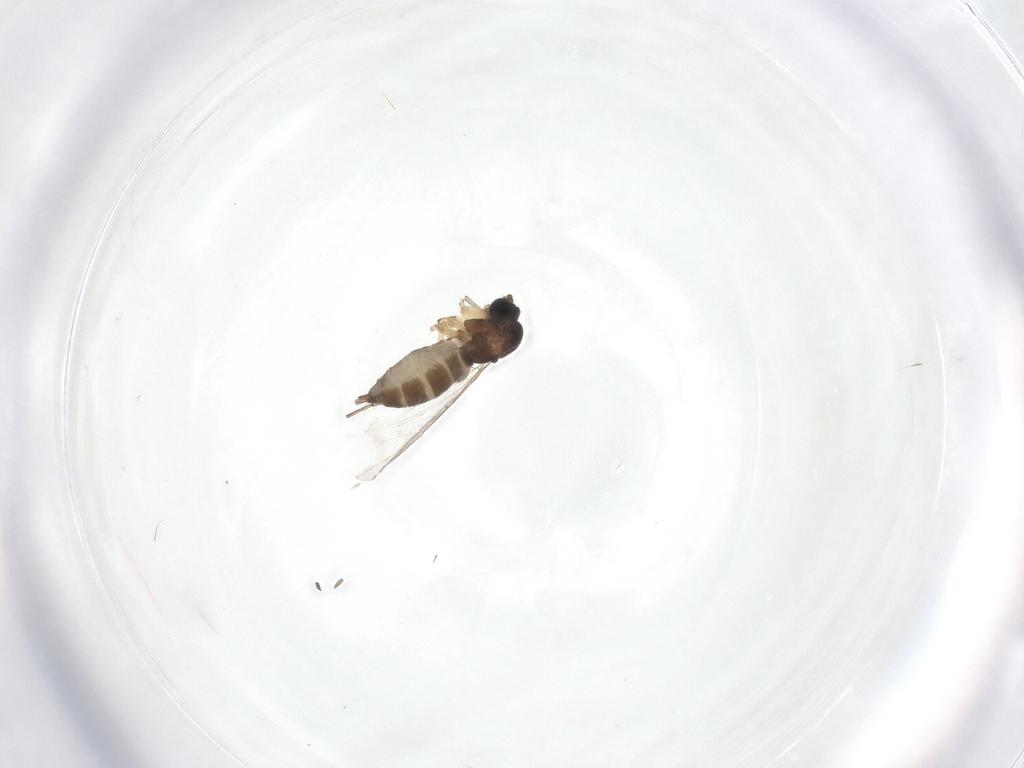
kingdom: Animalia
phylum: Arthropoda
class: Insecta
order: Diptera
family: Sciaridae
